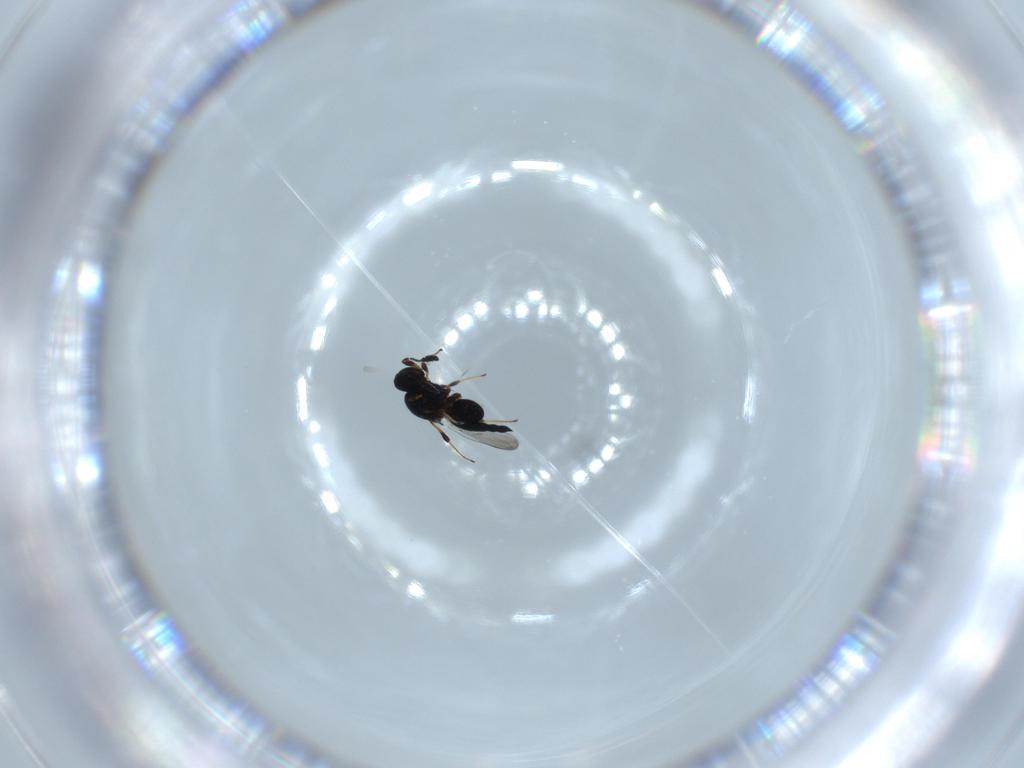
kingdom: Animalia
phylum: Arthropoda
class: Insecta
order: Hymenoptera
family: Platygastridae
